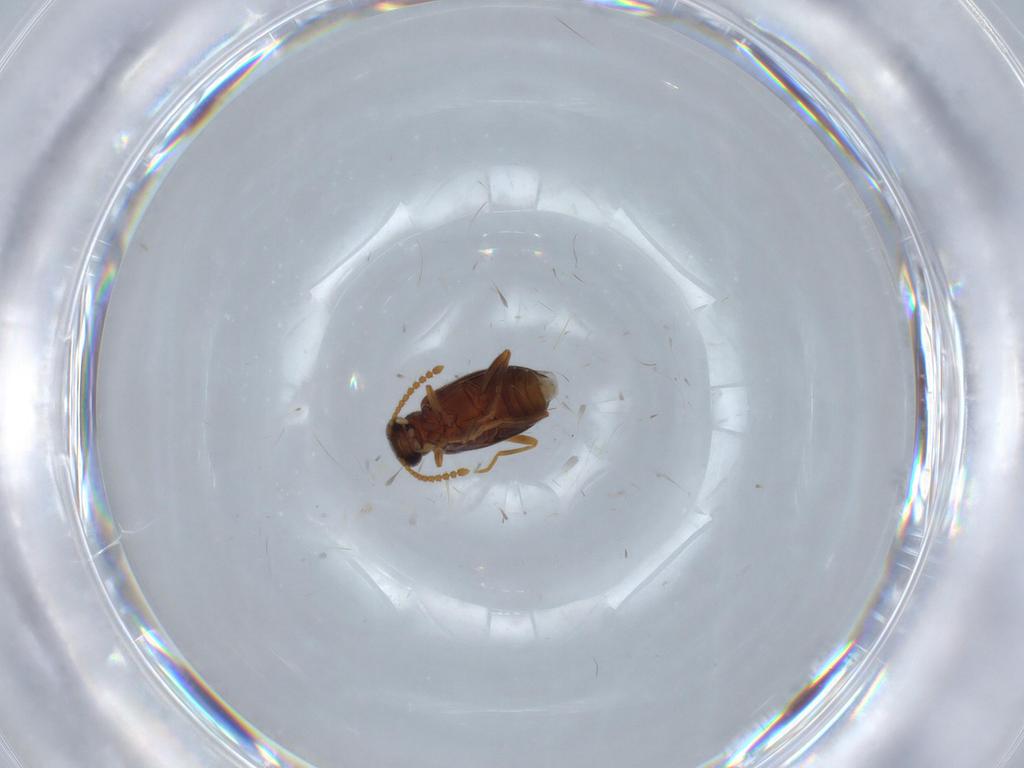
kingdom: Animalia
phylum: Arthropoda
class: Insecta
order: Coleoptera
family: Aderidae
